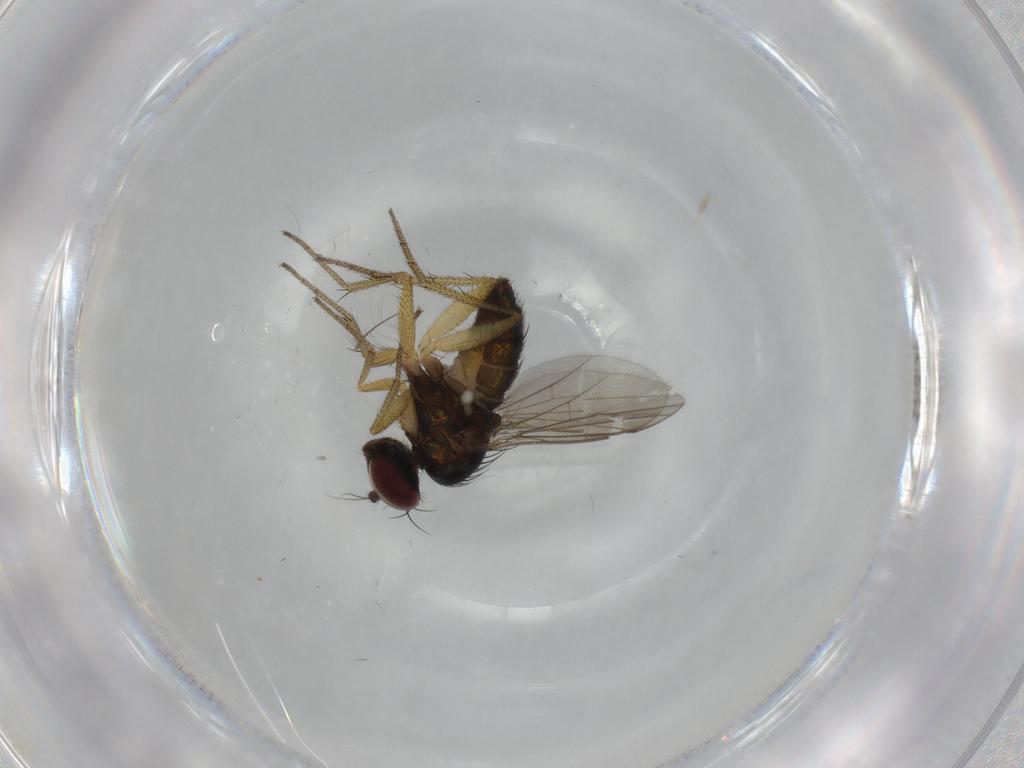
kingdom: Animalia
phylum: Arthropoda
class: Insecta
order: Diptera
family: Dolichopodidae
